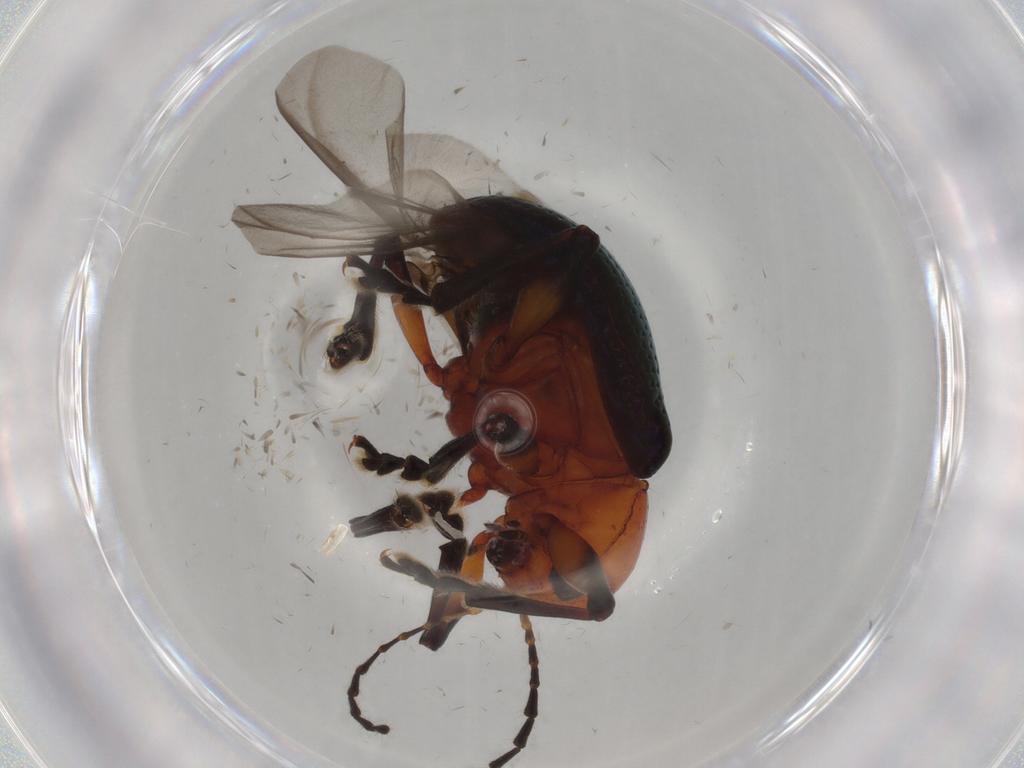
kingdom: Animalia
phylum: Arthropoda
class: Insecta
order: Coleoptera
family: Chrysomelidae
